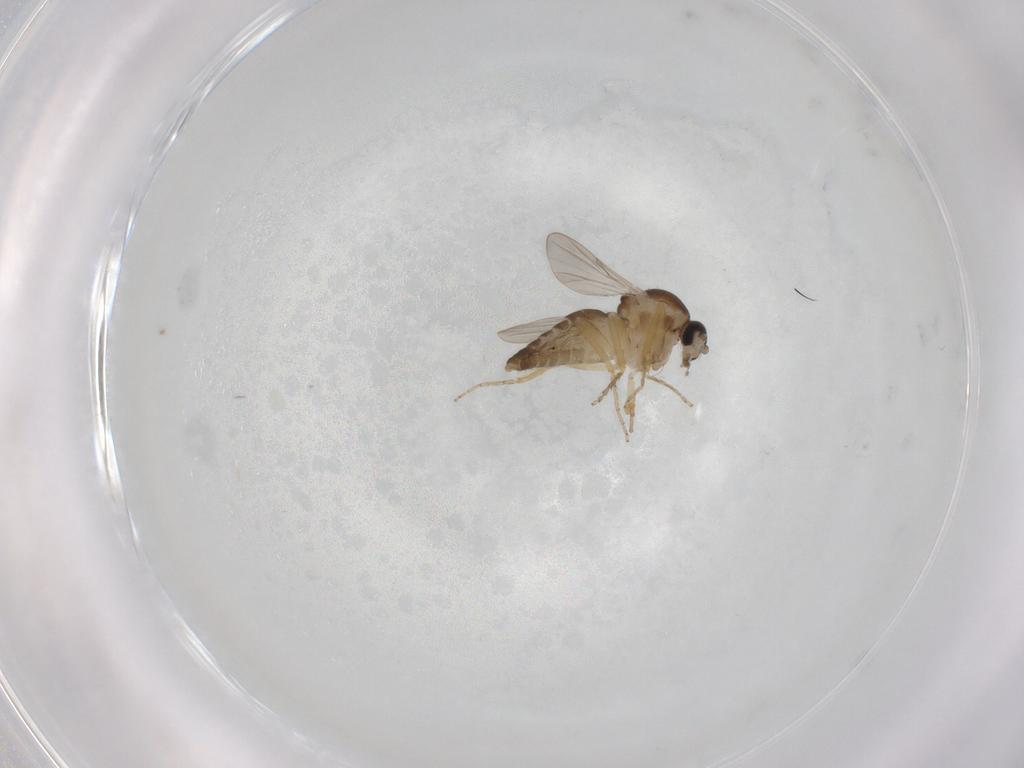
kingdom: Animalia
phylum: Arthropoda
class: Insecta
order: Diptera
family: Ceratopogonidae
